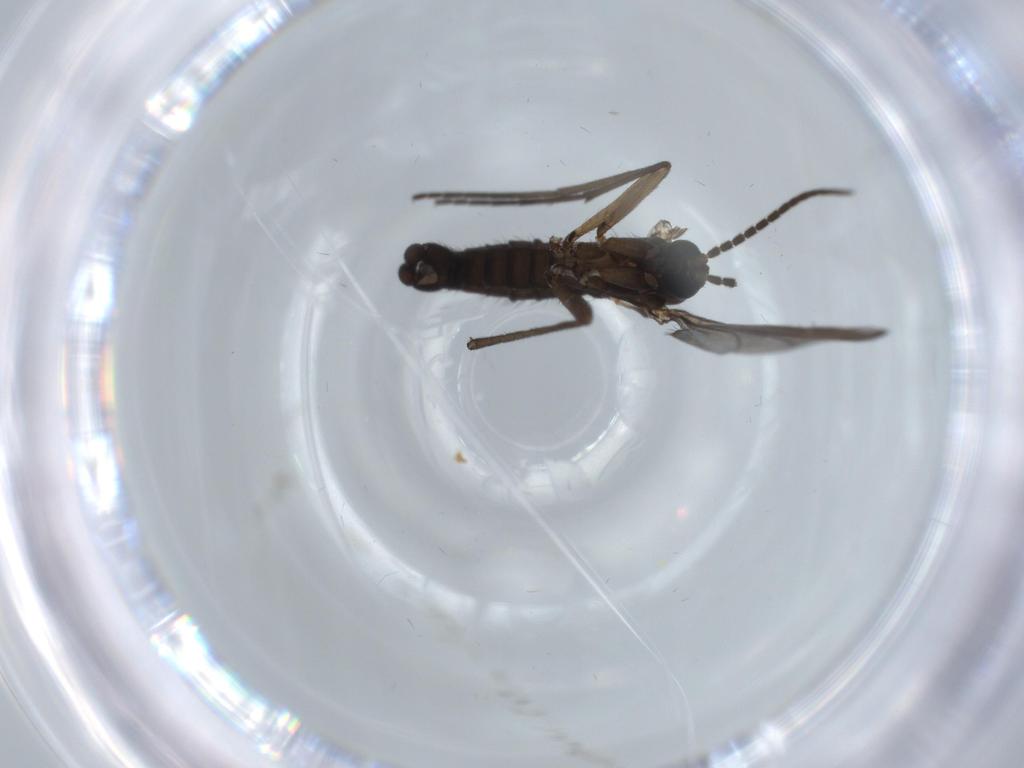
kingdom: Animalia
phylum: Arthropoda
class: Insecta
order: Diptera
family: Sciaridae
